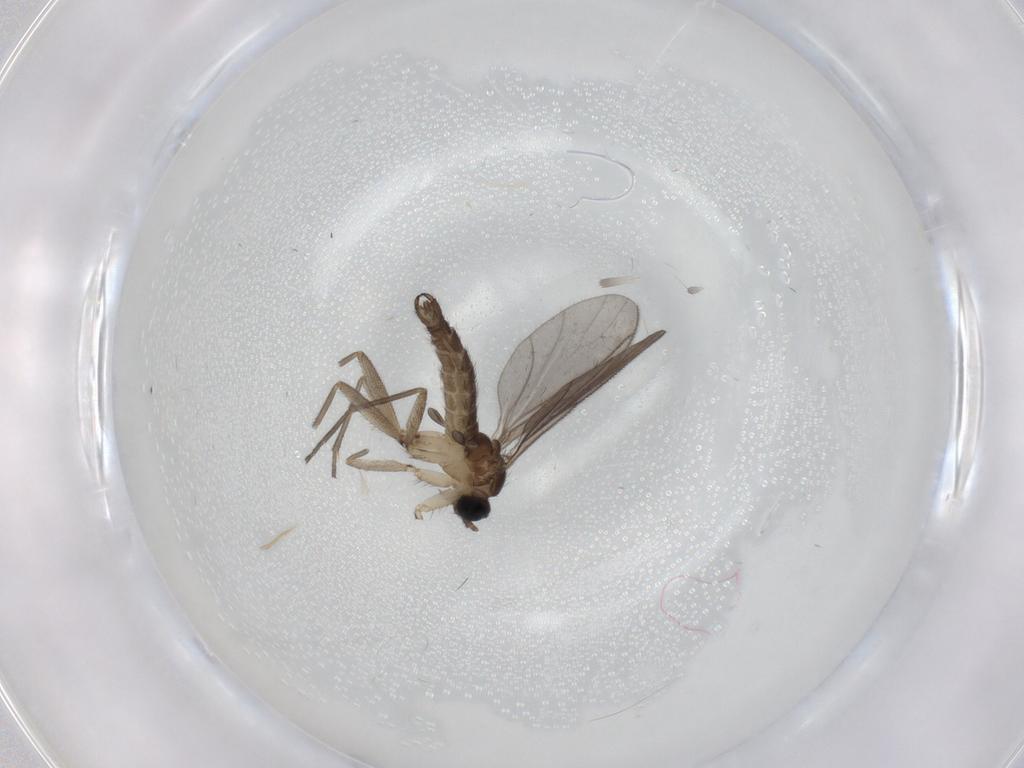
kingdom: Animalia
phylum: Arthropoda
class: Insecta
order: Diptera
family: Sciaridae
